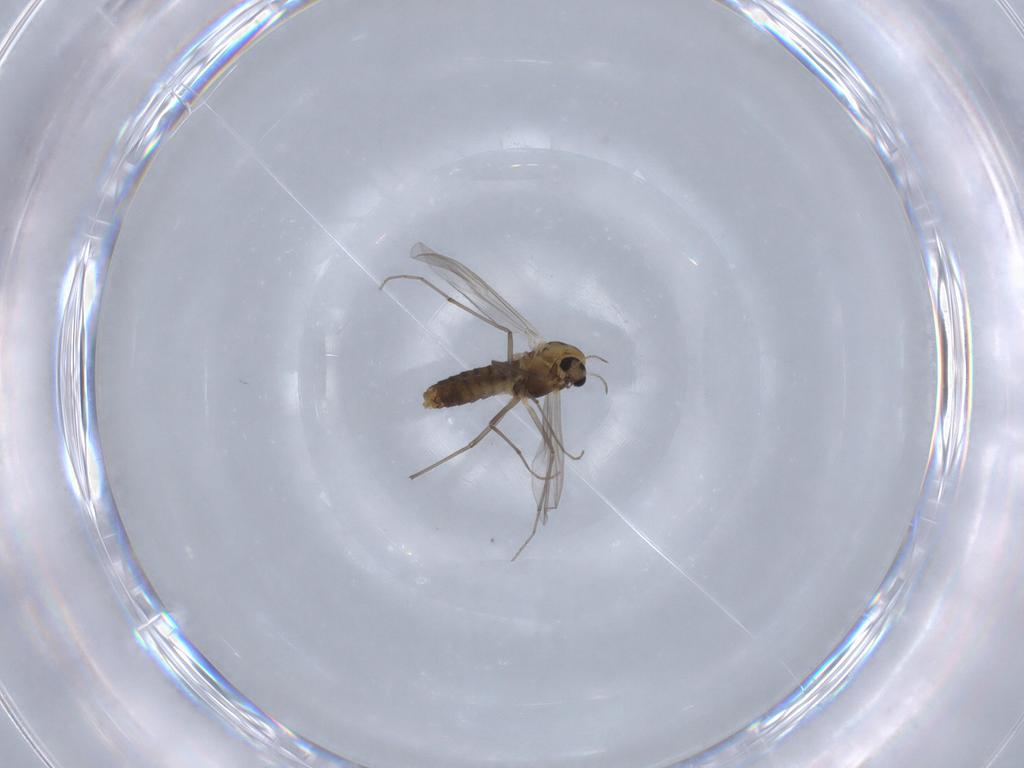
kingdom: Animalia
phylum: Arthropoda
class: Insecta
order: Diptera
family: Chironomidae
